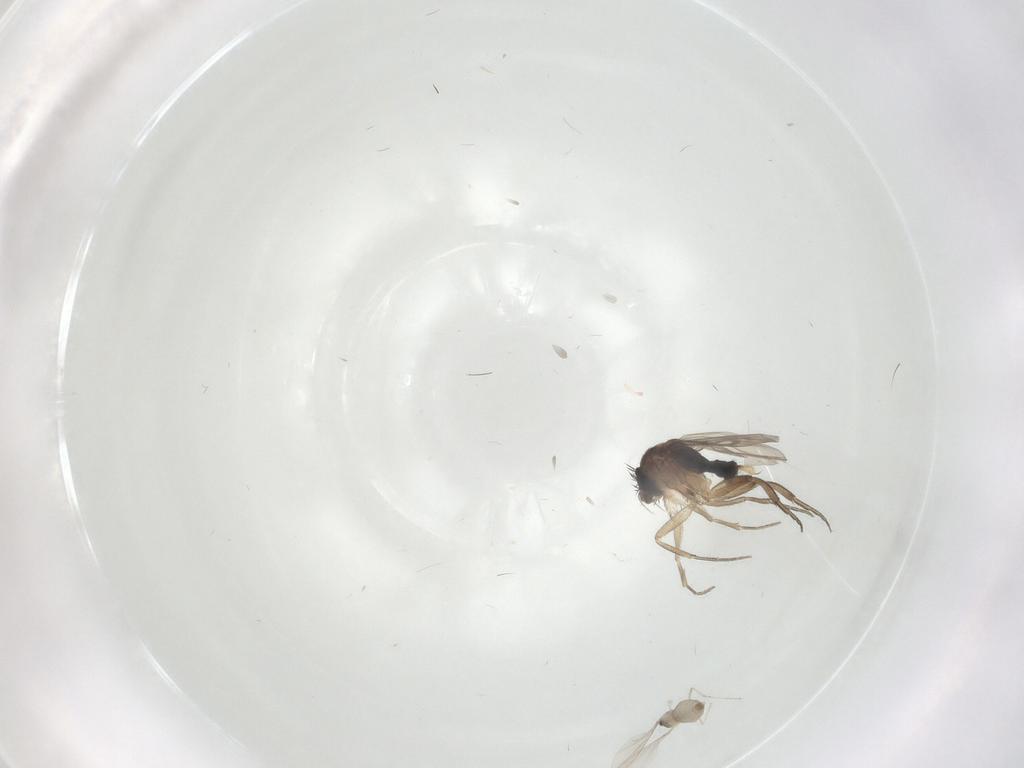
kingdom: Animalia
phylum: Arthropoda
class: Insecta
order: Diptera
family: Psychodidae
